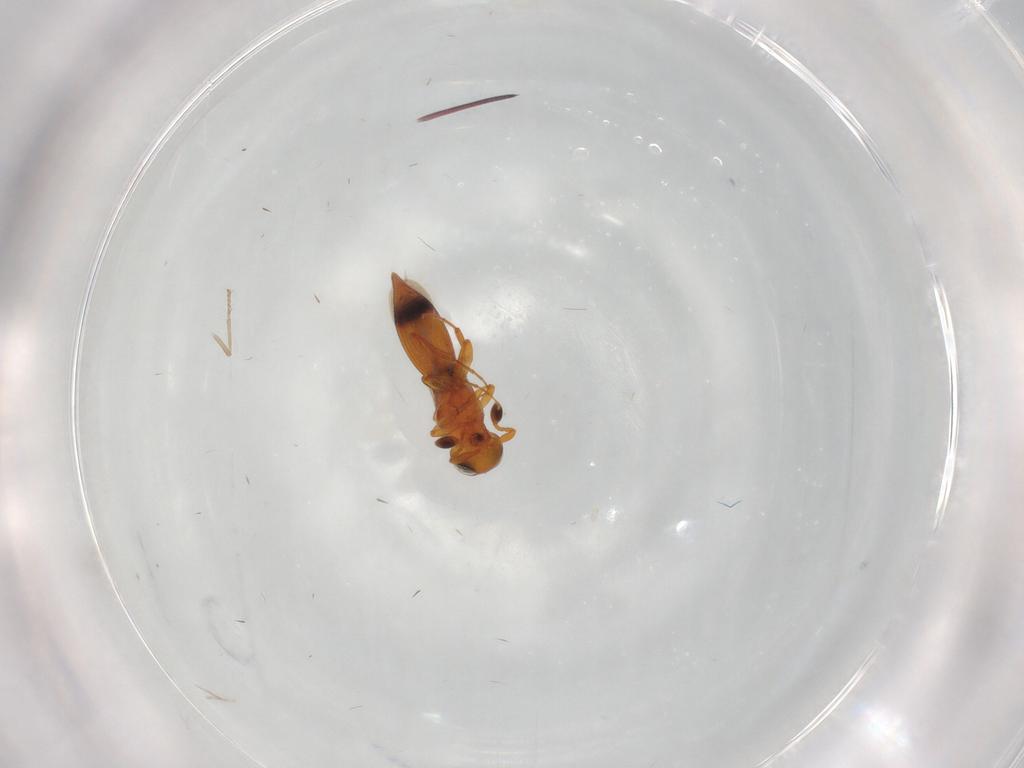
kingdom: Animalia
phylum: Arthropoda
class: Insecta
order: Hymenoptera
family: Platygastridae
